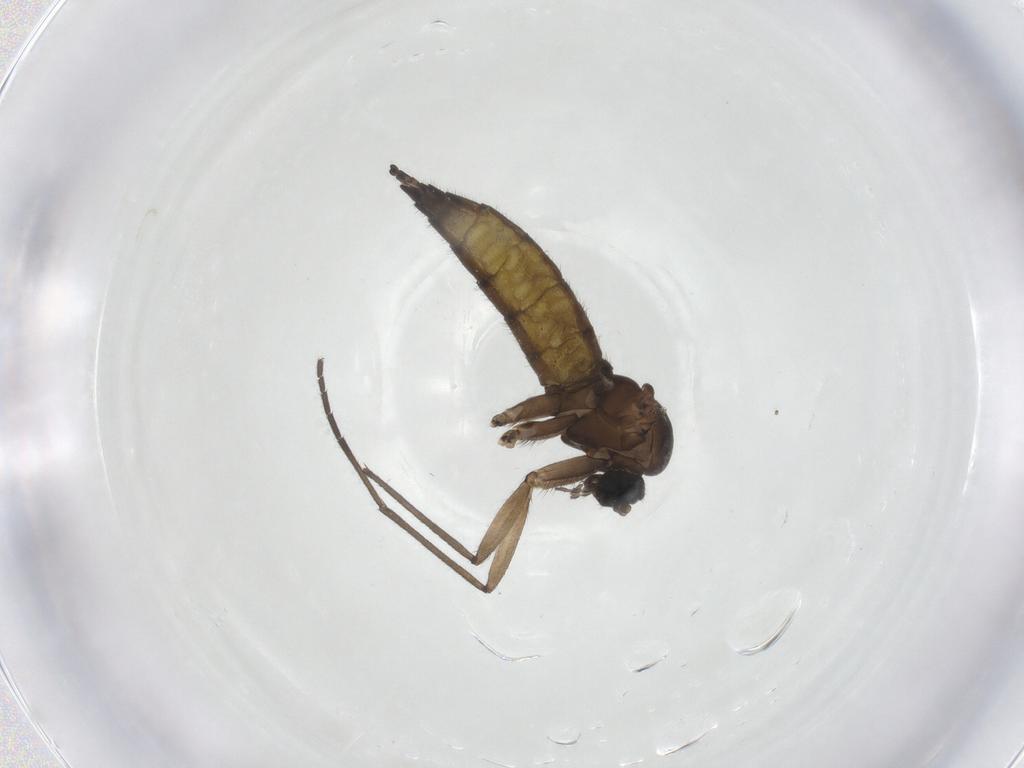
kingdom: Animalia
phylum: Arthropoda
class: Insecta
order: Diptera
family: Sciaridae
